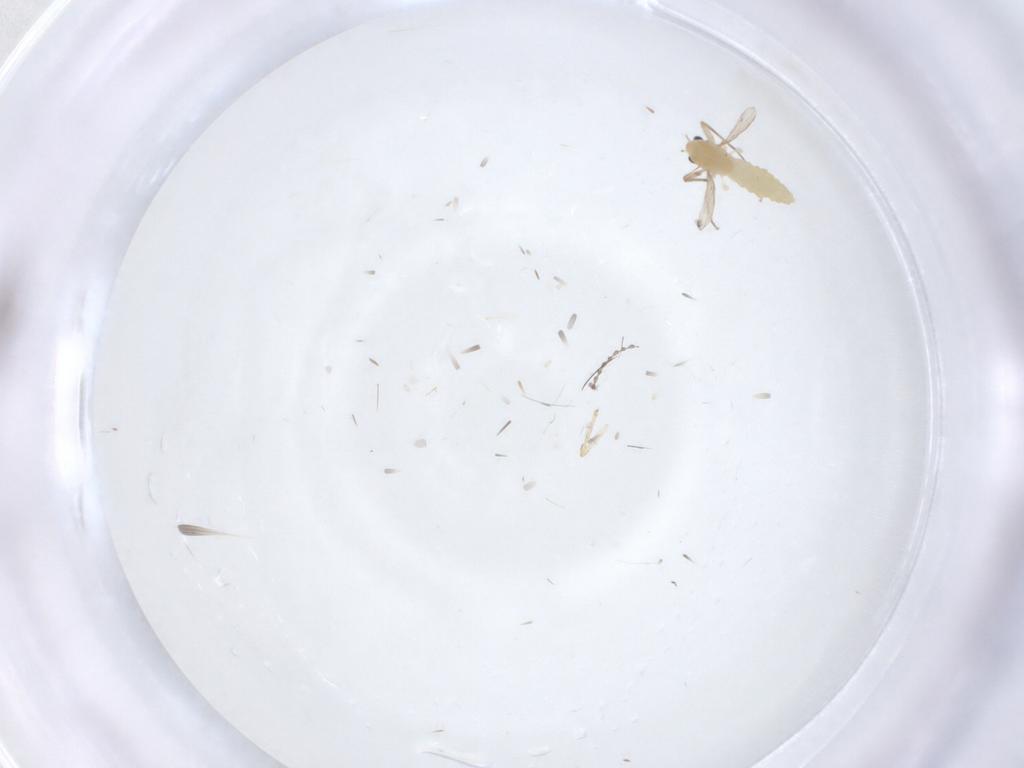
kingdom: Animalia
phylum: Arthropoda
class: Insecta
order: Diptera
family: Chironomidae
